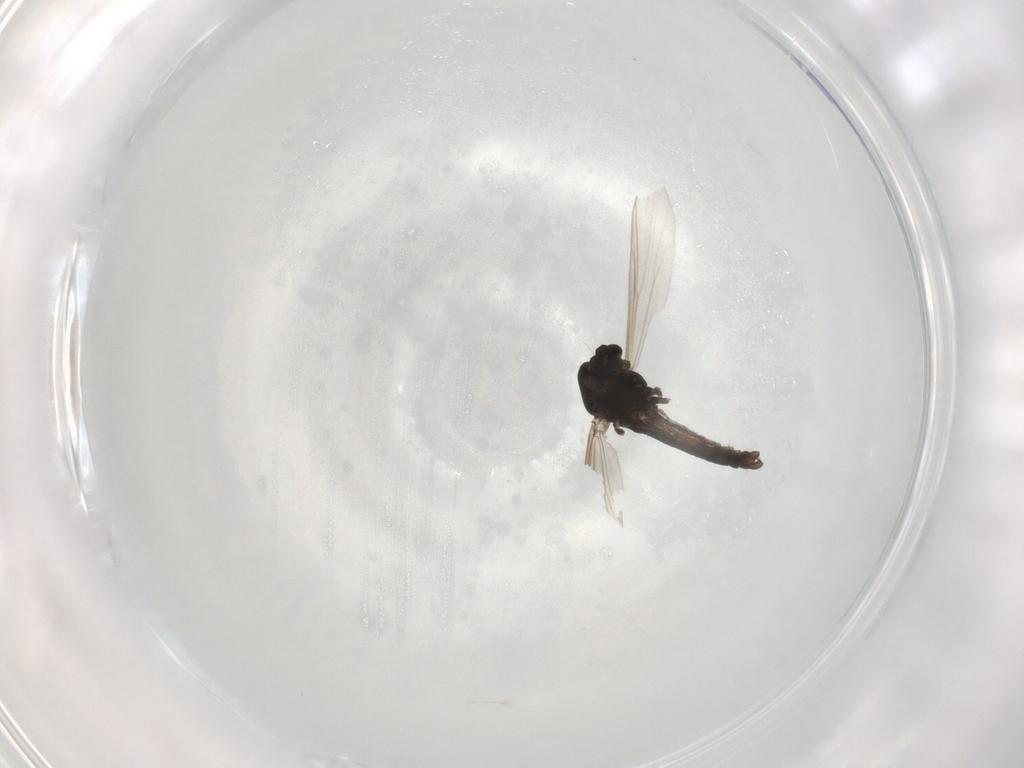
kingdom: Animalia
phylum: Arthropoda
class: Insecta
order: Diptera
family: Chironomidae
